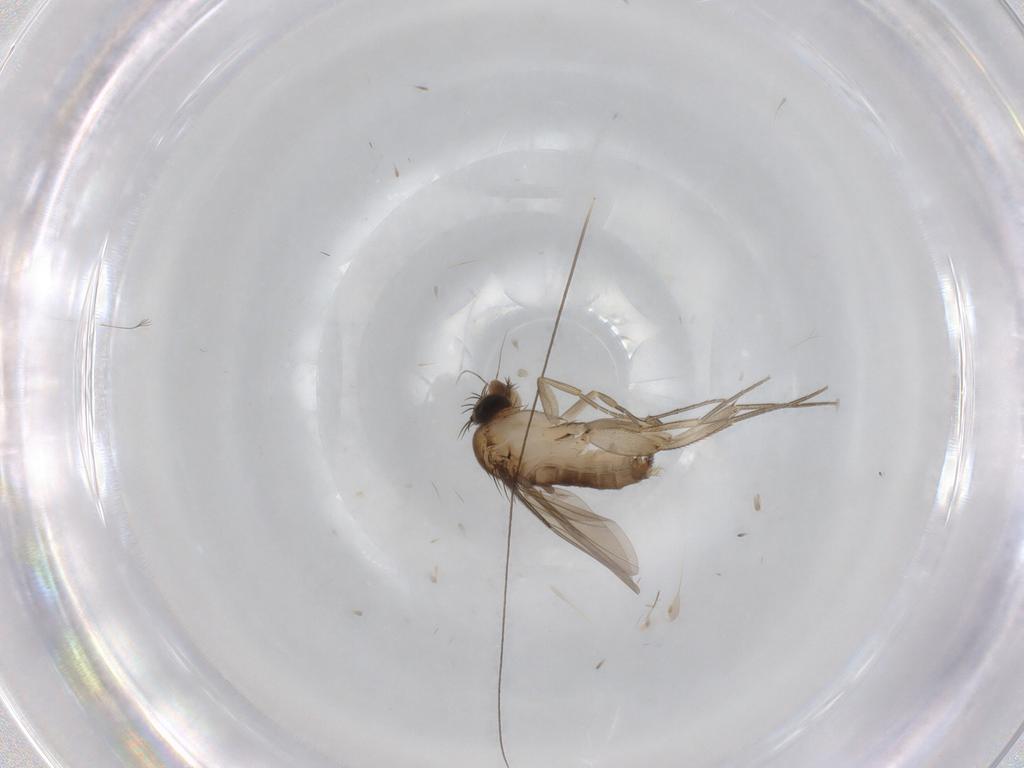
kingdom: Animalia
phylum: Arthropoda
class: Insecta
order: Diptera
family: Phoridae
